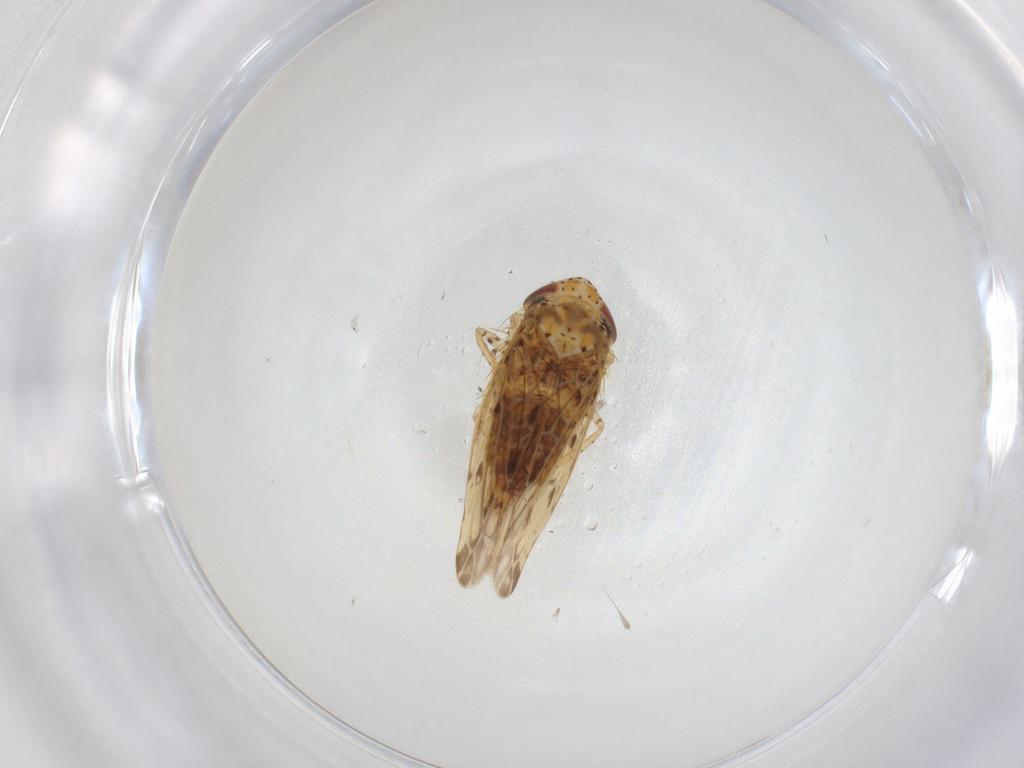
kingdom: Animalia
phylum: Arthropoda
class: Insecta
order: Hemiptera
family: Cicadellidae
